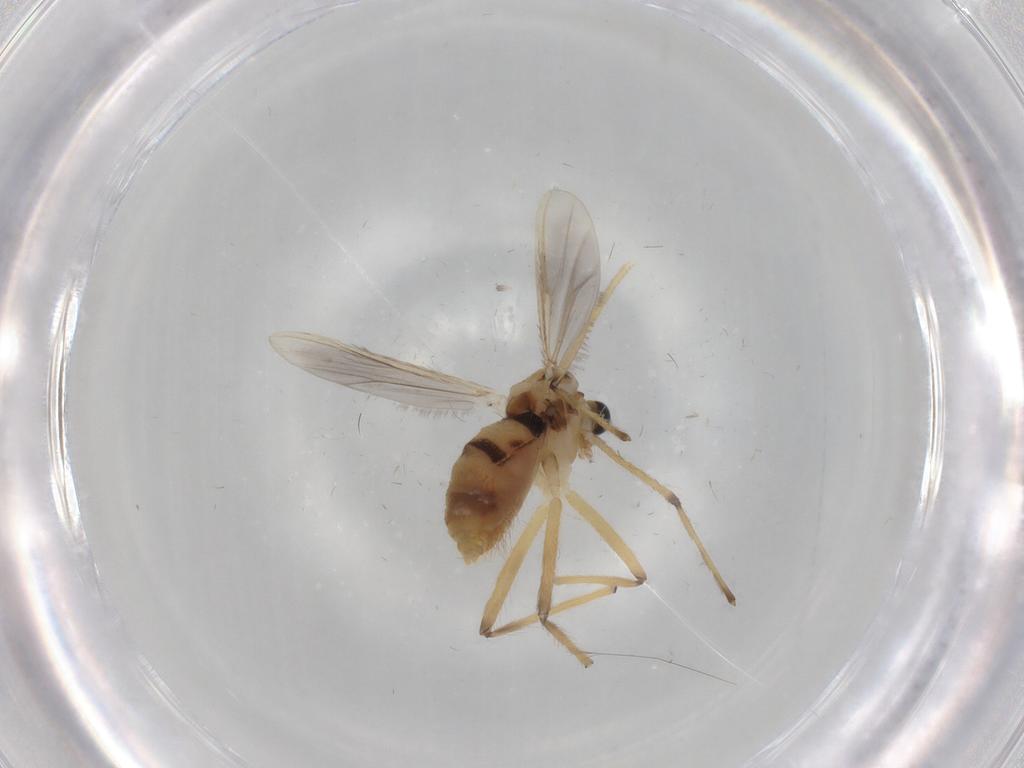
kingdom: Animalia
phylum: Arthropoda
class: Insecta
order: Diptera
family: Chironomidae
